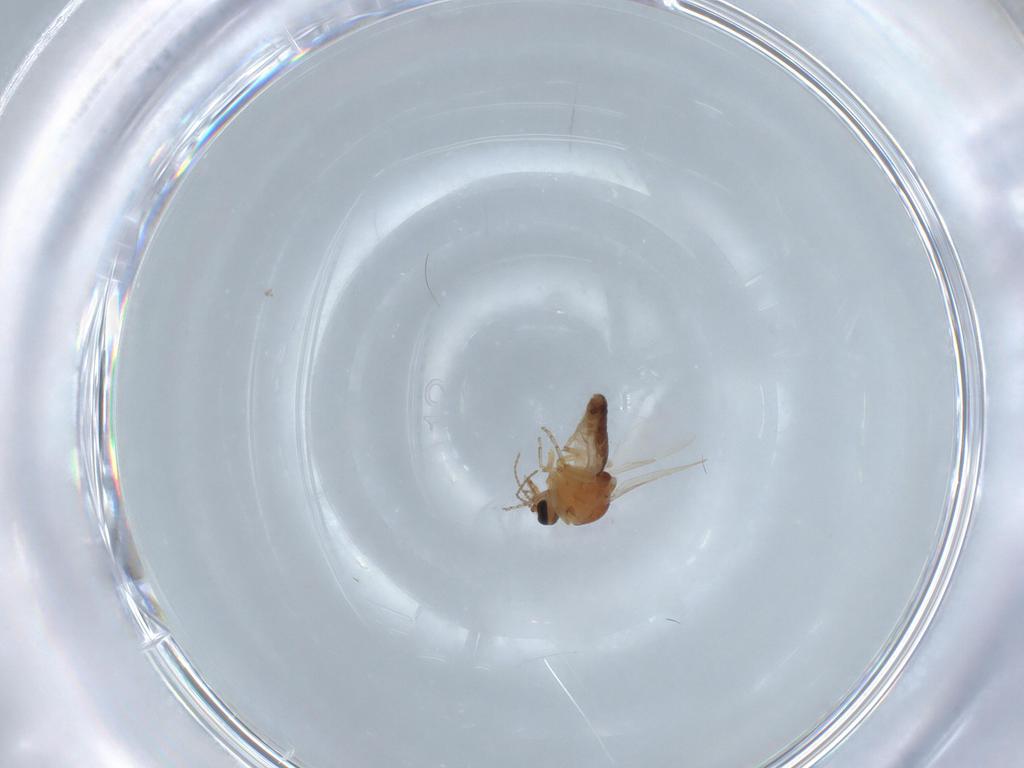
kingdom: Animalia
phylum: Arthropoda
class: Insecta
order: Diptera
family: Ceratopogonidae
